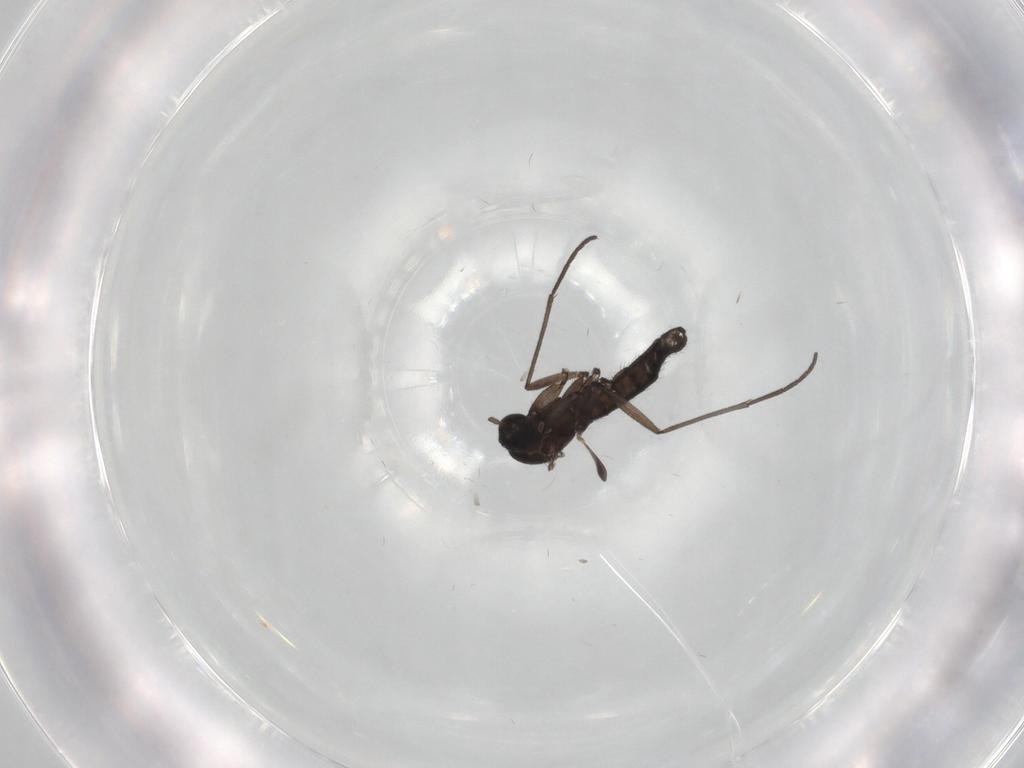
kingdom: Animalia
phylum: Arthropoda
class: Insecta
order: Diptera
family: Sciaridae
